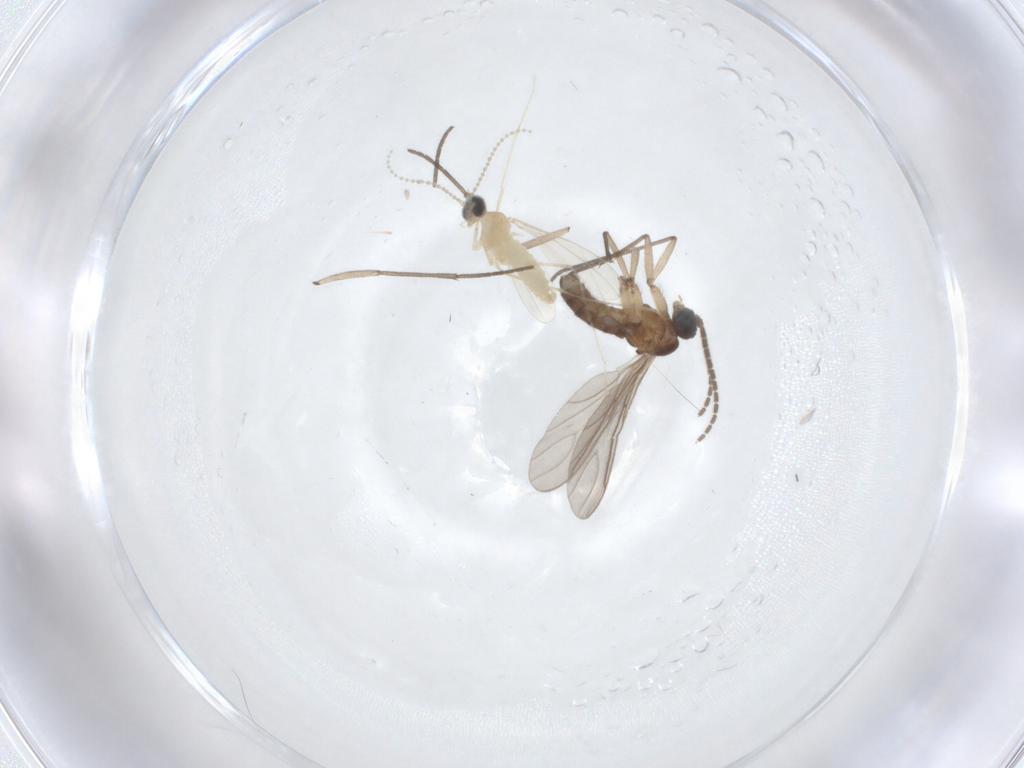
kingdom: Animalia
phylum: Arthropoda
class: Insecta
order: Diptera
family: Sciaridae
